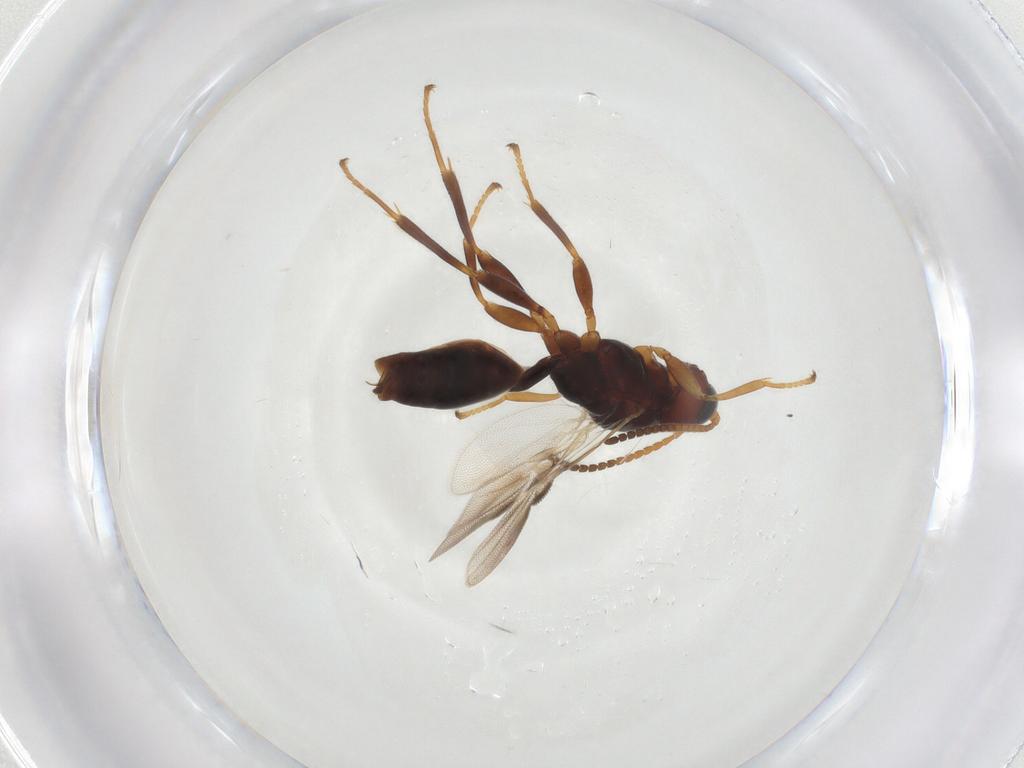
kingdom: Animalia
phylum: Arthropoda
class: Insecta
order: Hymenoptera
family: Braconidae
